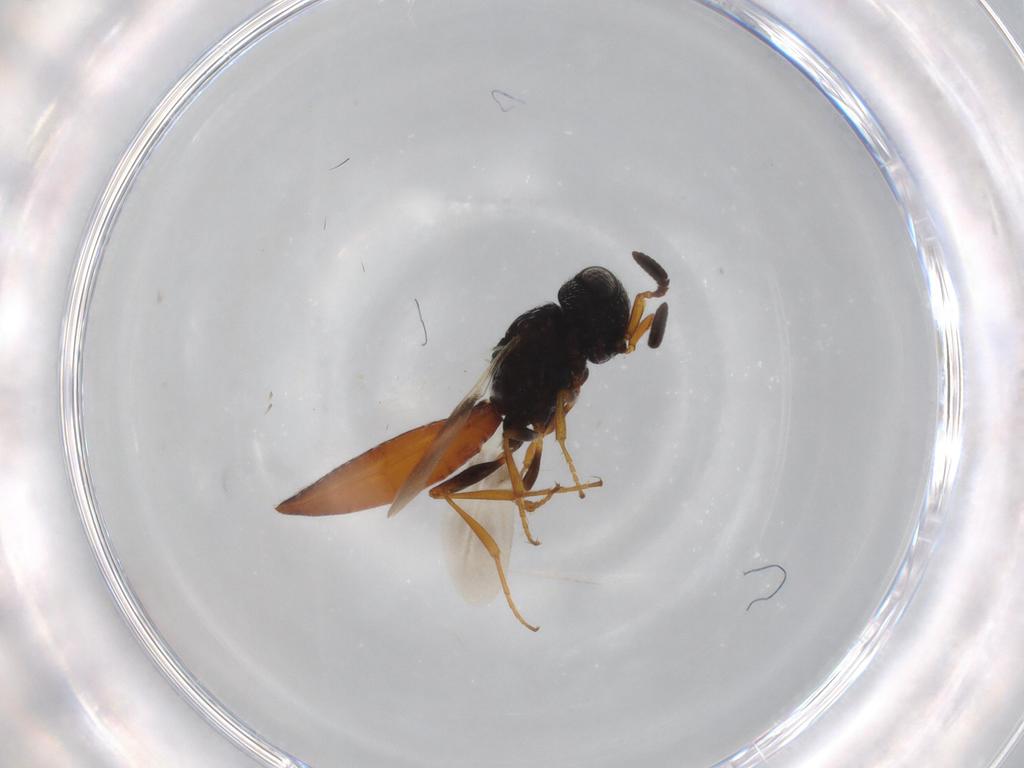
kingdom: Animalia
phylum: Arthropoda
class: Insecta
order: Hymenoptera
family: Scelionidae
